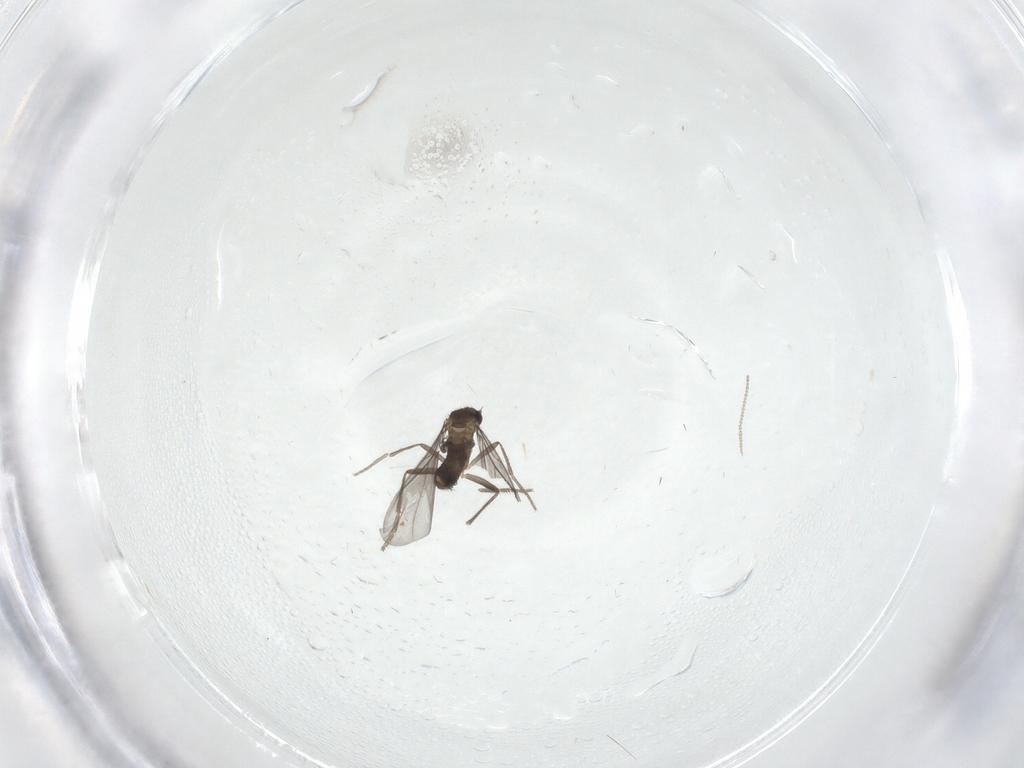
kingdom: Animalia
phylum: Arthropoda
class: Insecta
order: Diptera
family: Phoridae
